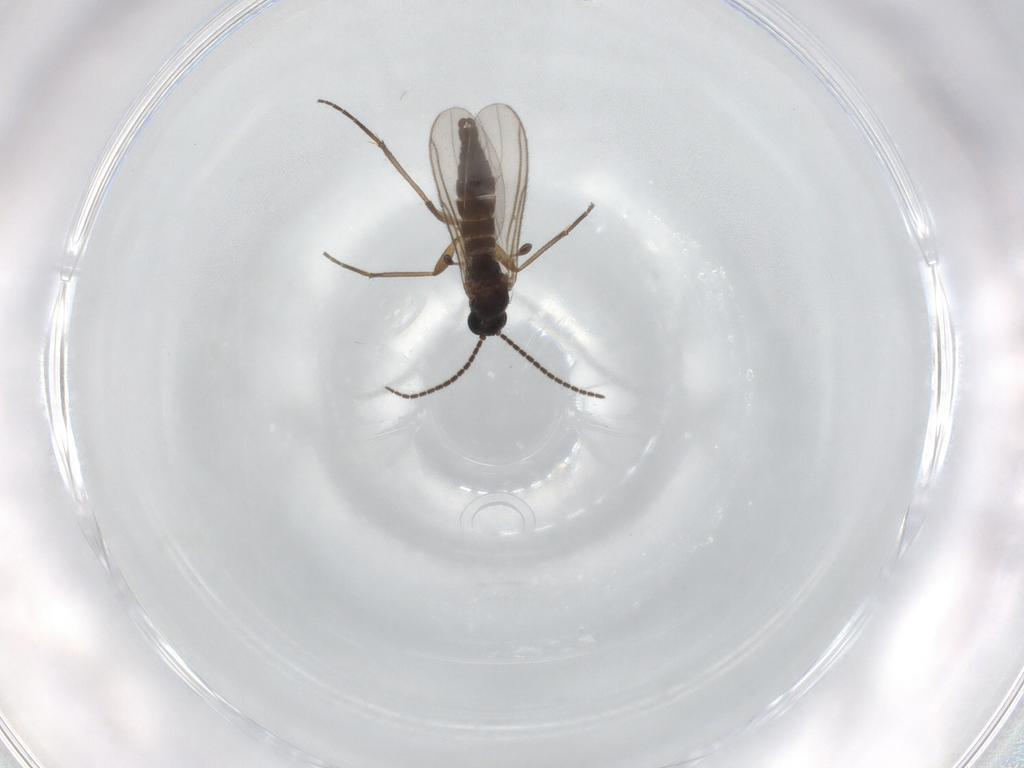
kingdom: Animalia
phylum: Arthropoda
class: Insecta
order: Diptera
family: Sciaridae
